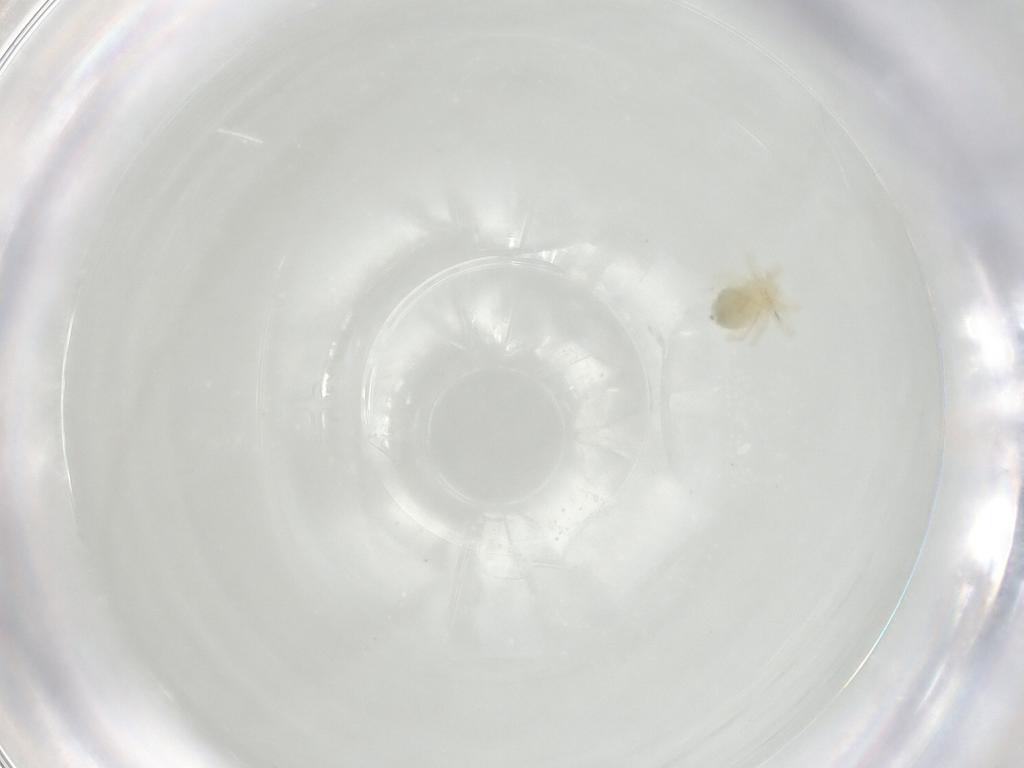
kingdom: Animalia
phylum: Arthropoda
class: Arachnida
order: Trombidiformes
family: Anystidae
